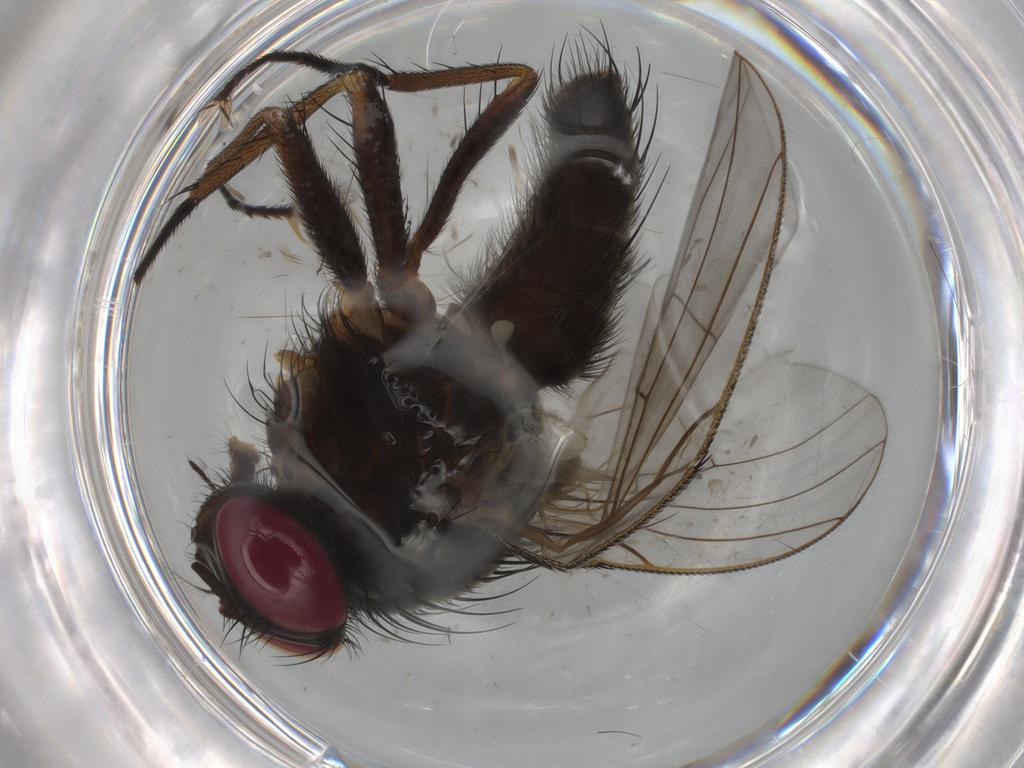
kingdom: Animalia
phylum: Arthropoda
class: Insecta
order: Diptera
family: Muscidae
